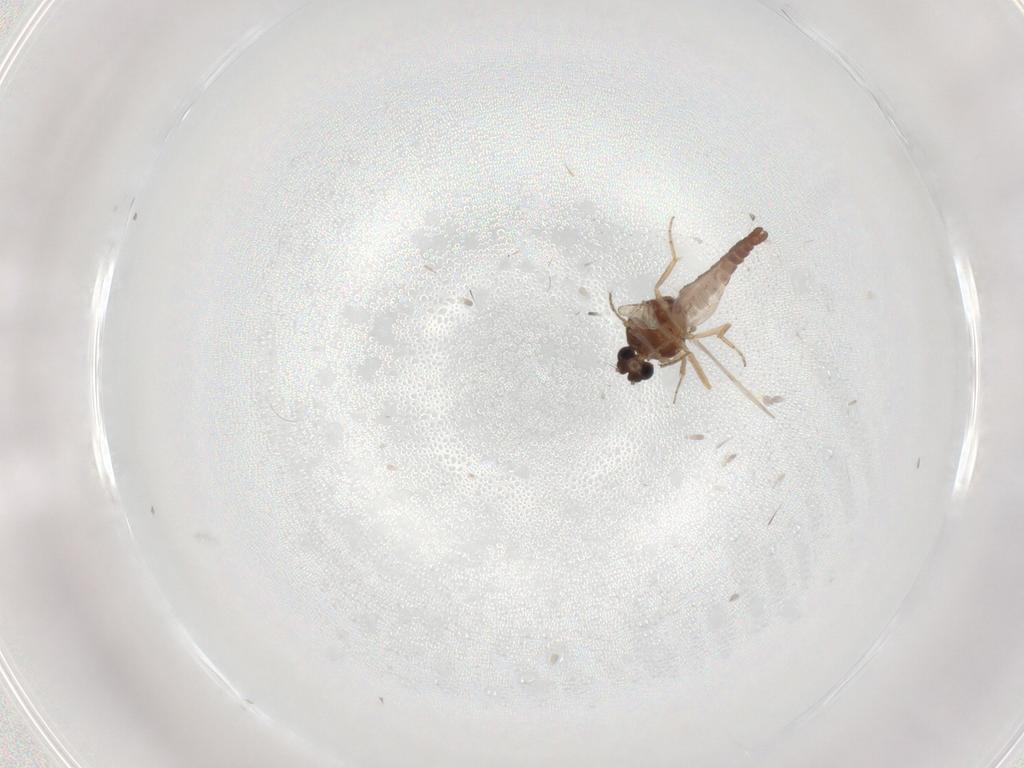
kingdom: Animalia
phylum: Arthropoda
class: Insecta
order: Diptera
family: Ceratopogonidae
